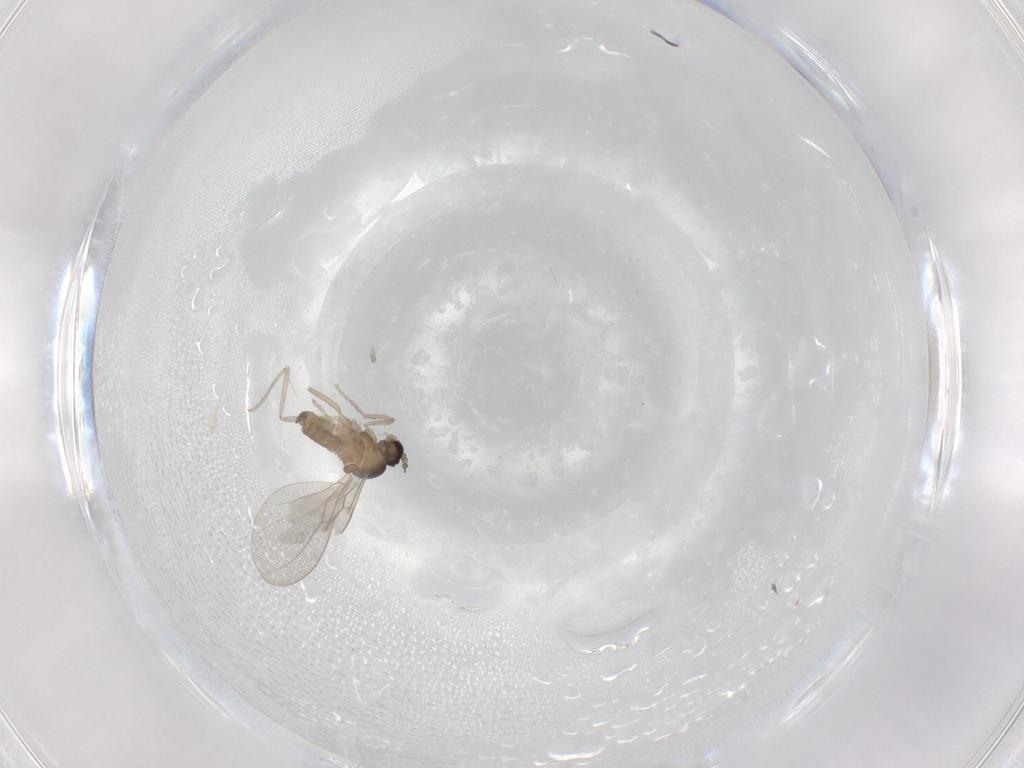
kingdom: Animalia
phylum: Arthropoda
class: Insecta
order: Diptera
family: Cecidomyiidae
